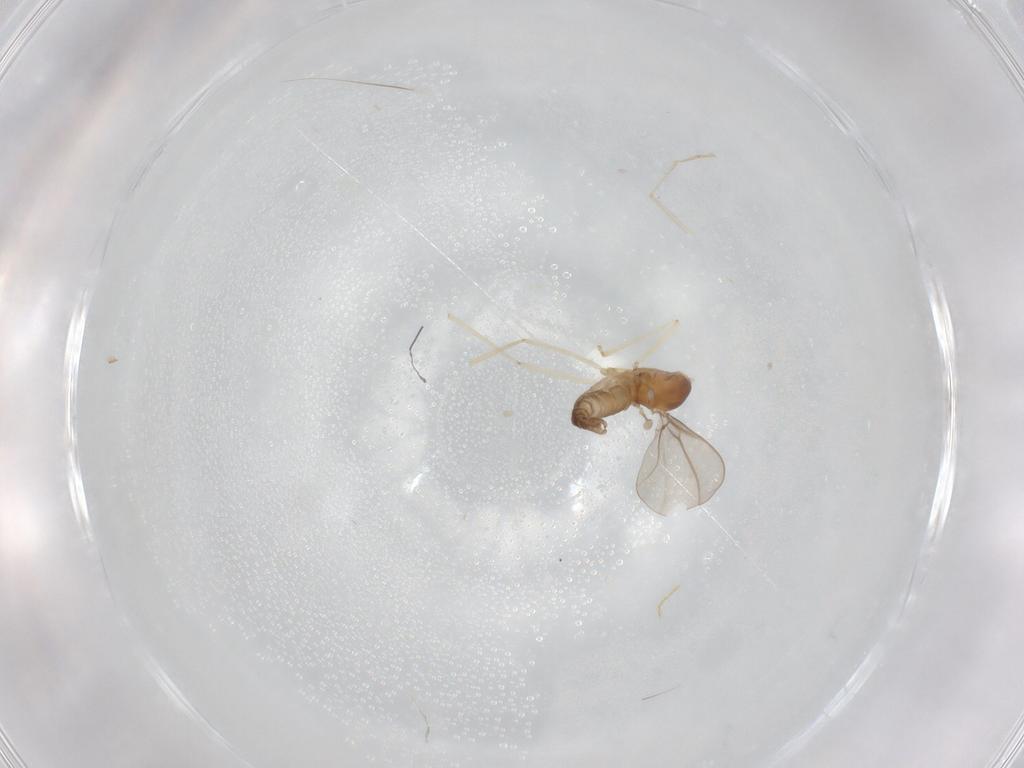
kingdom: Animalia
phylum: Arthropoda
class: Insecta
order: Diptera
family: Cecidomyiidae
